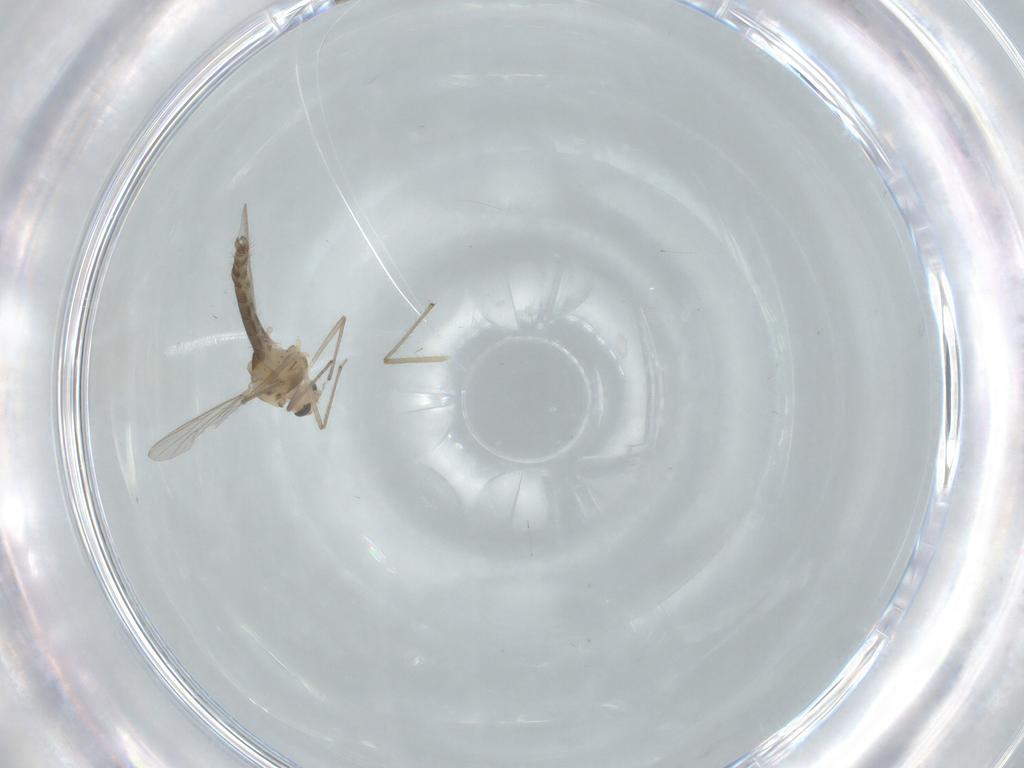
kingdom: Animalia
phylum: Arthropoda
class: Insecta
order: Diptera
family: Chironomidae
